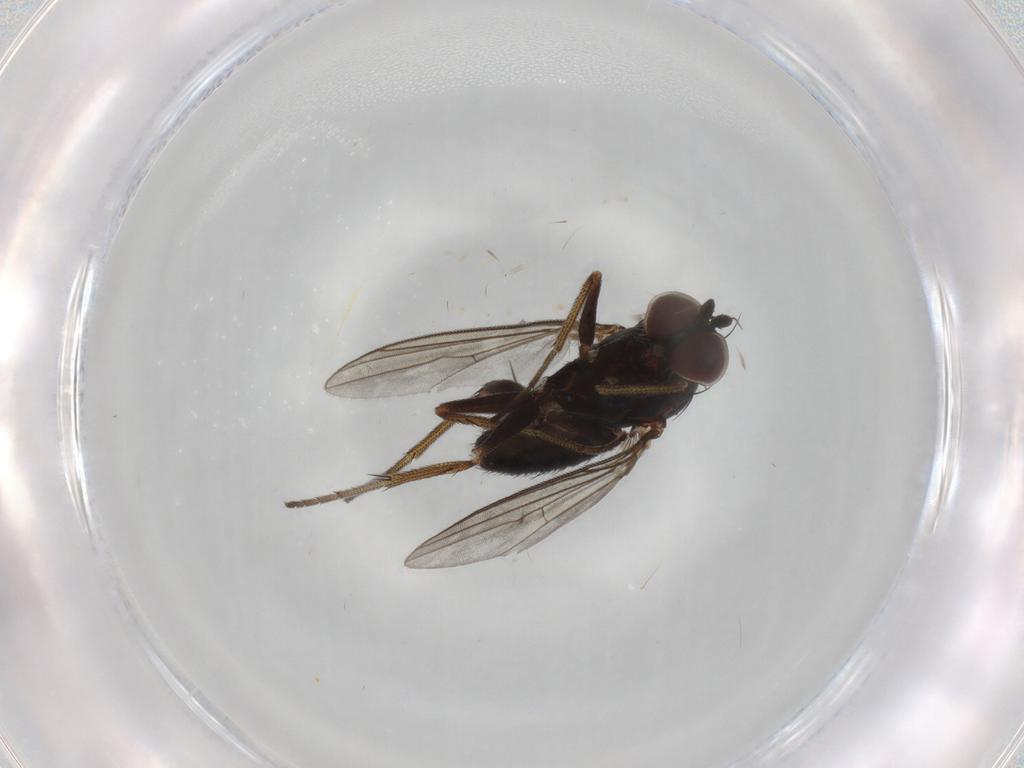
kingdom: Animalia
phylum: Arthropoda
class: Insecta
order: Diptera
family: Dolichopodidae
